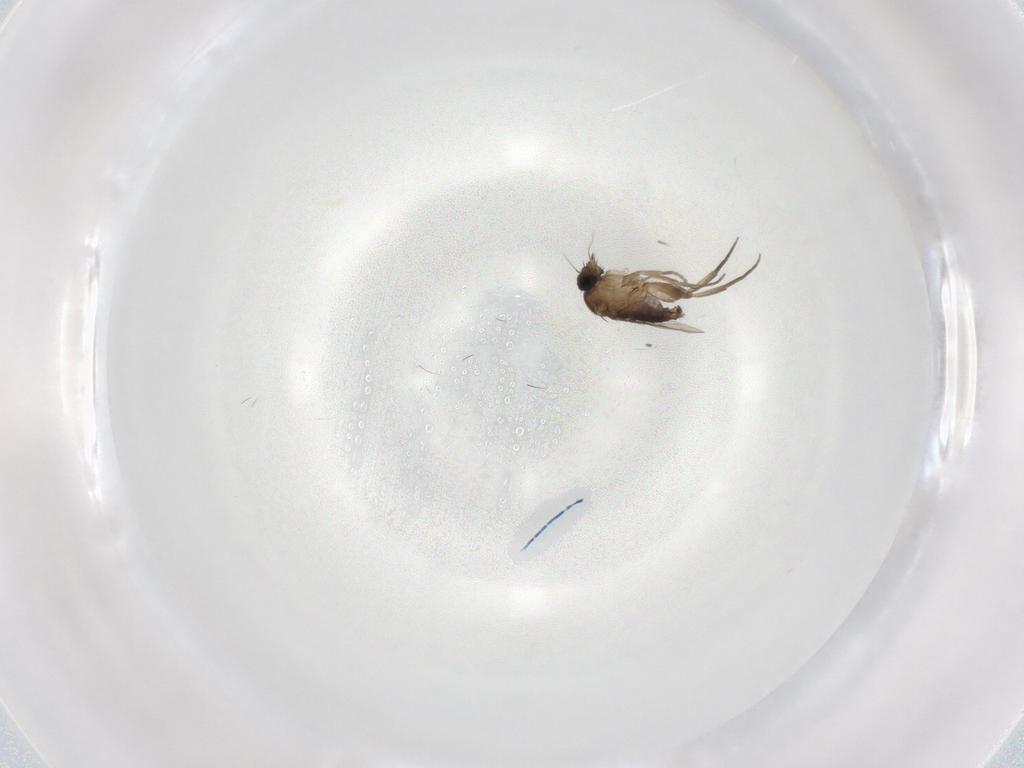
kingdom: Animalia
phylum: Arthropoda
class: Insecta
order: Diptera
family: Phoridae
